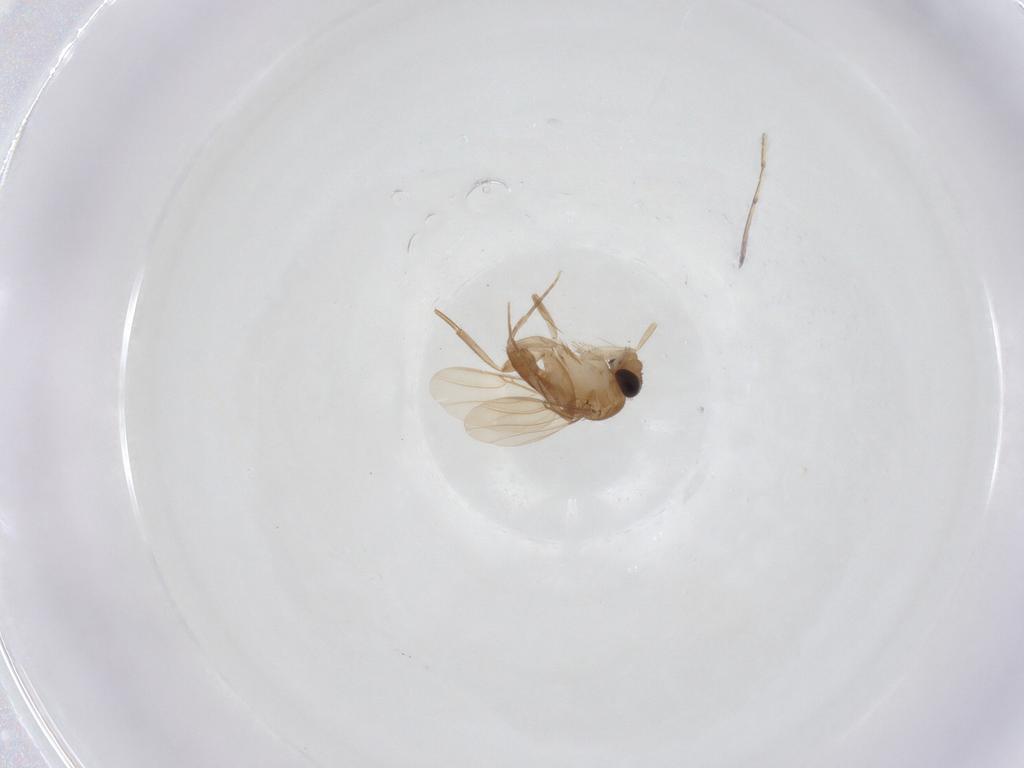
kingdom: Animalia
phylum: Arthropoda
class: Insecta
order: Diptera
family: Phoridae
